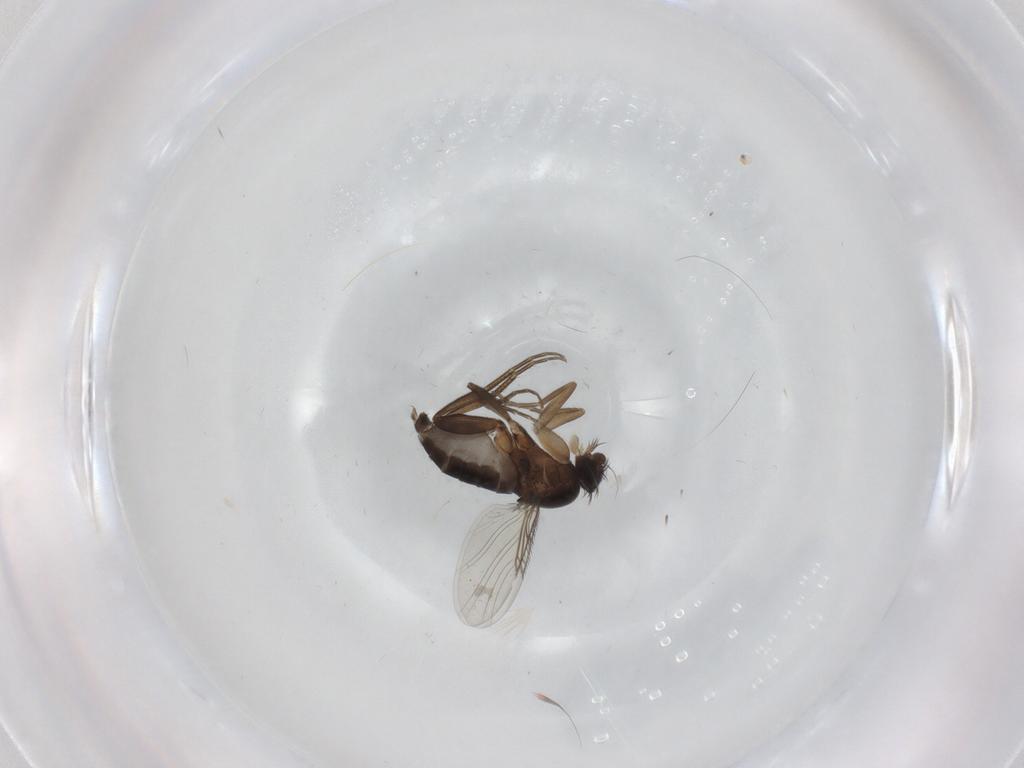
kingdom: Animalia
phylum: Arthropoda
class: Insecta
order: Diptera
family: Phoridae
